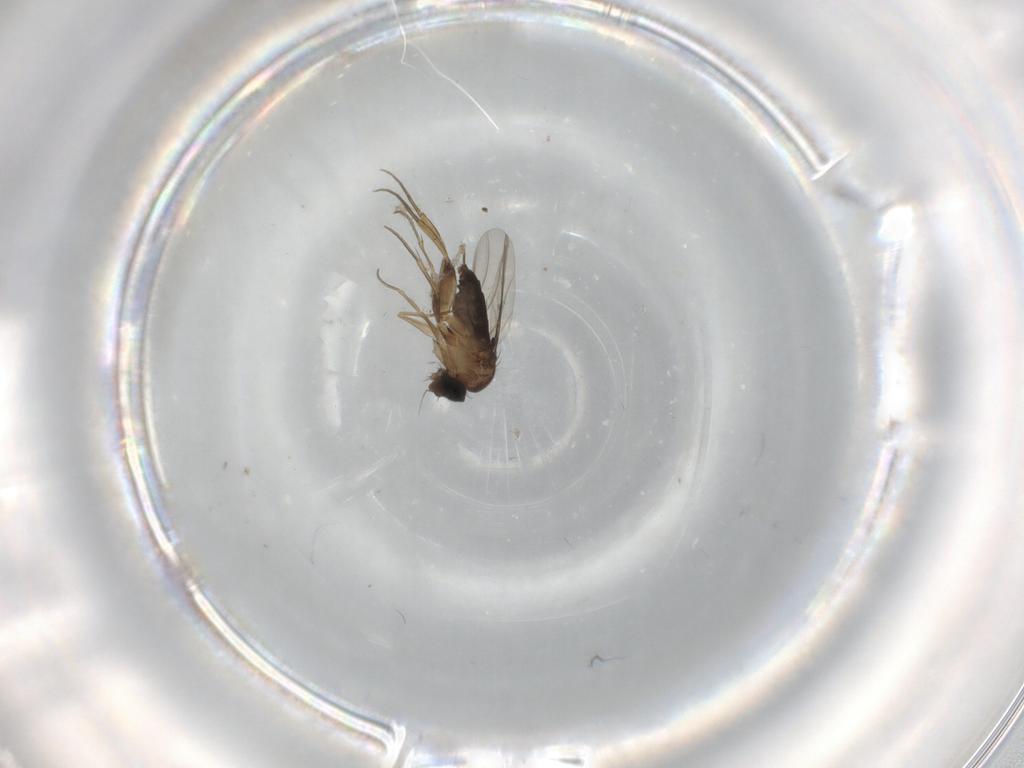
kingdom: Animalia
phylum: Arthropoda
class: Insecta
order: Diptera
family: Phoridae
